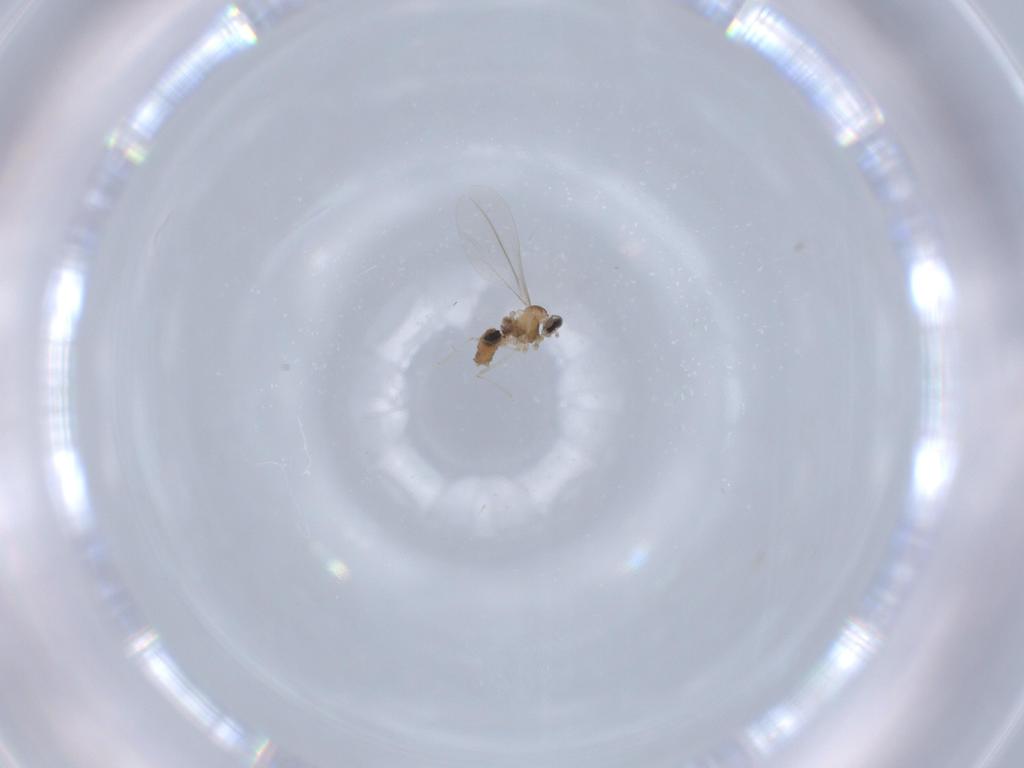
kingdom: Animalia
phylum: Arthropoda
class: Insecta
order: Diptera
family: Cecidomyiidae
